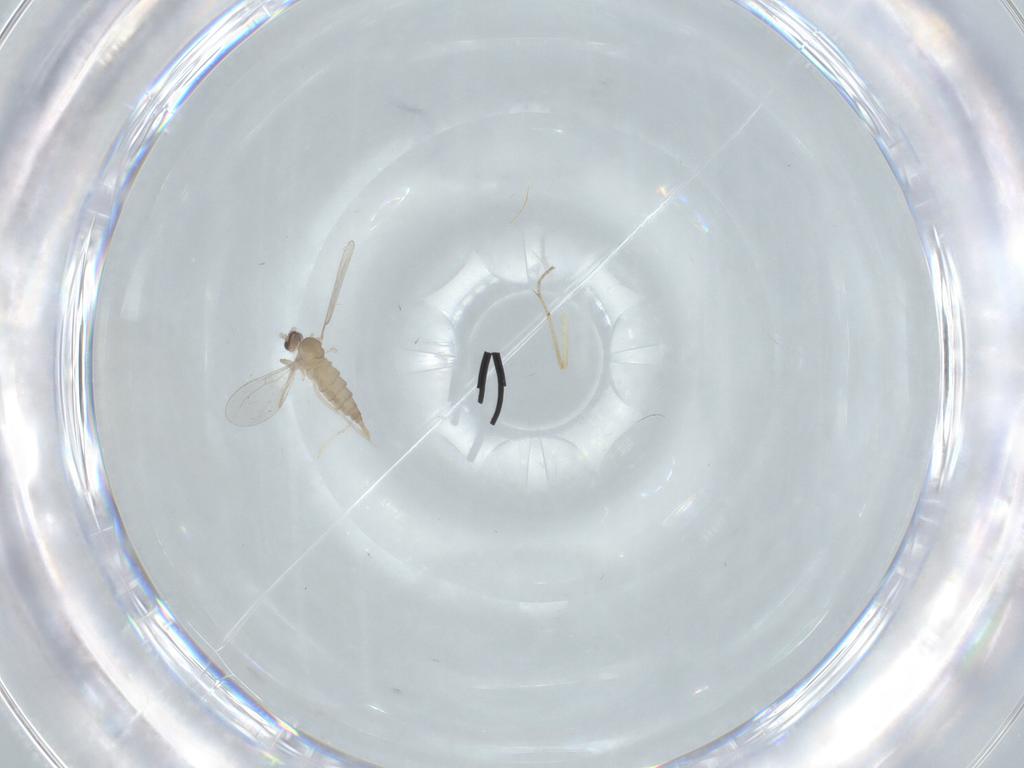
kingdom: Animalia
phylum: Arthropoda
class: Insecta
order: Diptera
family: Cecidomyiidae
